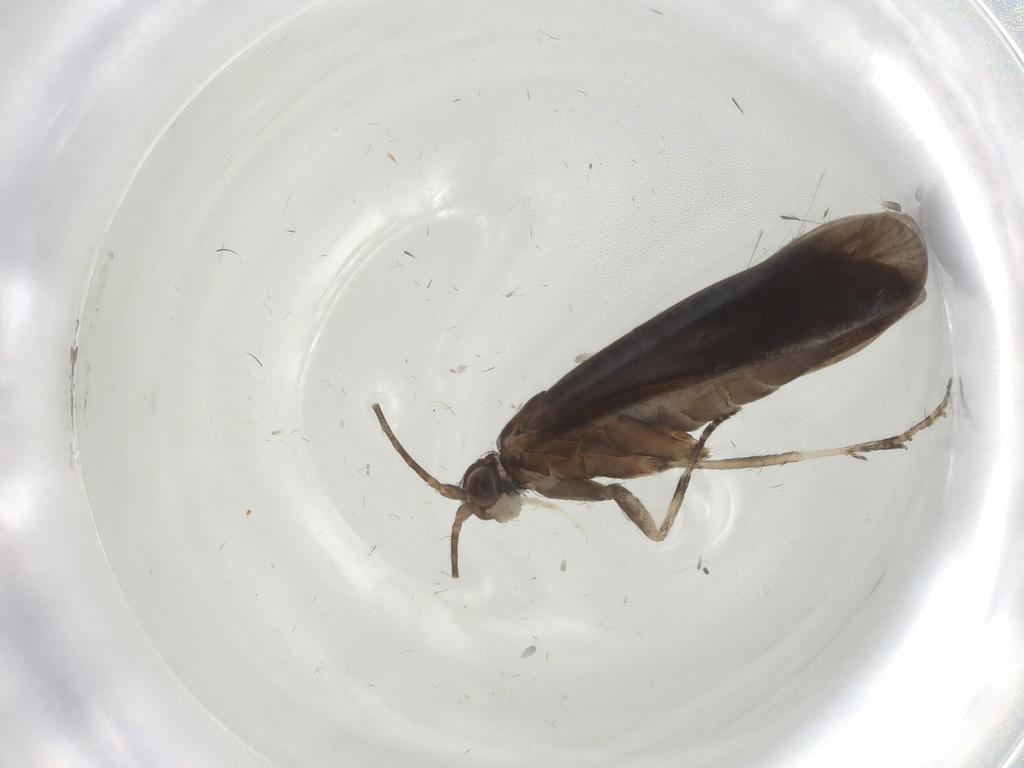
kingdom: Animalia
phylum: Arthropoda
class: Insecta
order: Trichoptera
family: Xiphocentronidae
